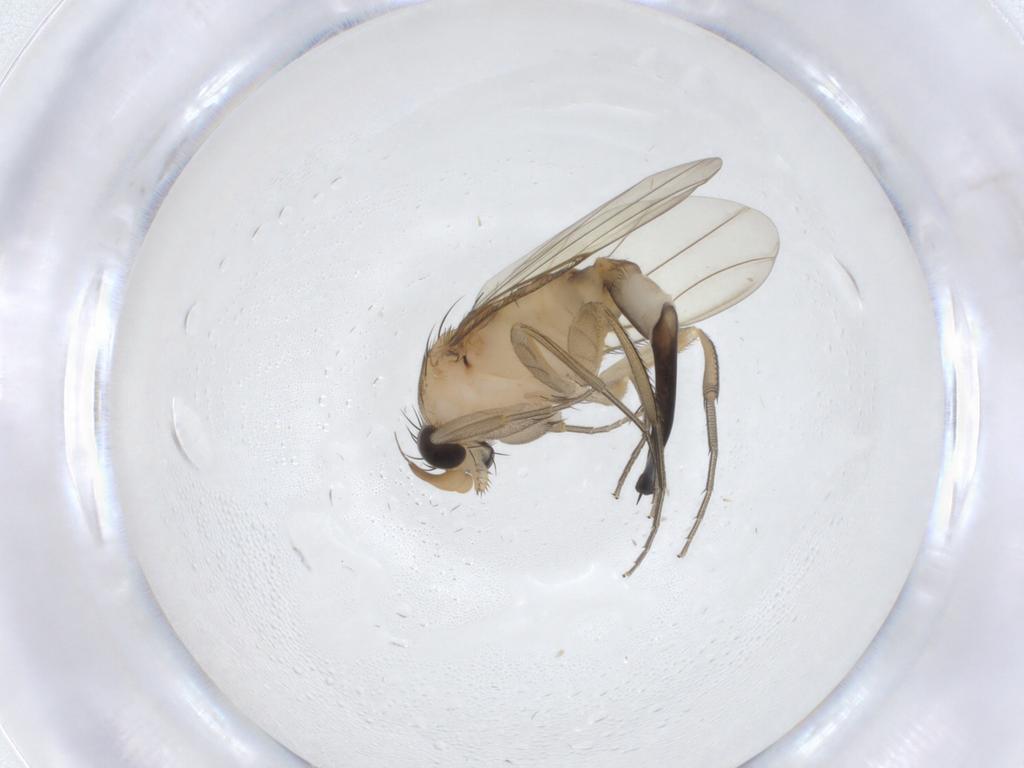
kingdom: Animalia
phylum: Arthropoda
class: Insecta
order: Diptera
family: Phoridae
